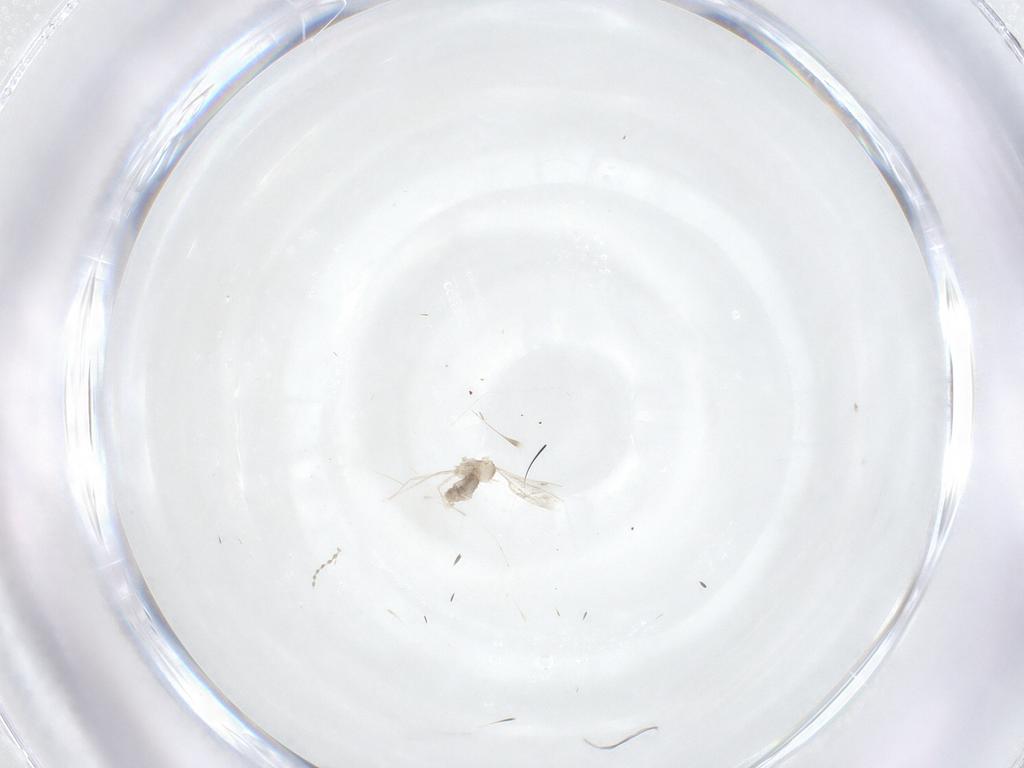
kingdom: Animalia
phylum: Arthropoda
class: Insecta
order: Diptera
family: Cecidomyiidae
